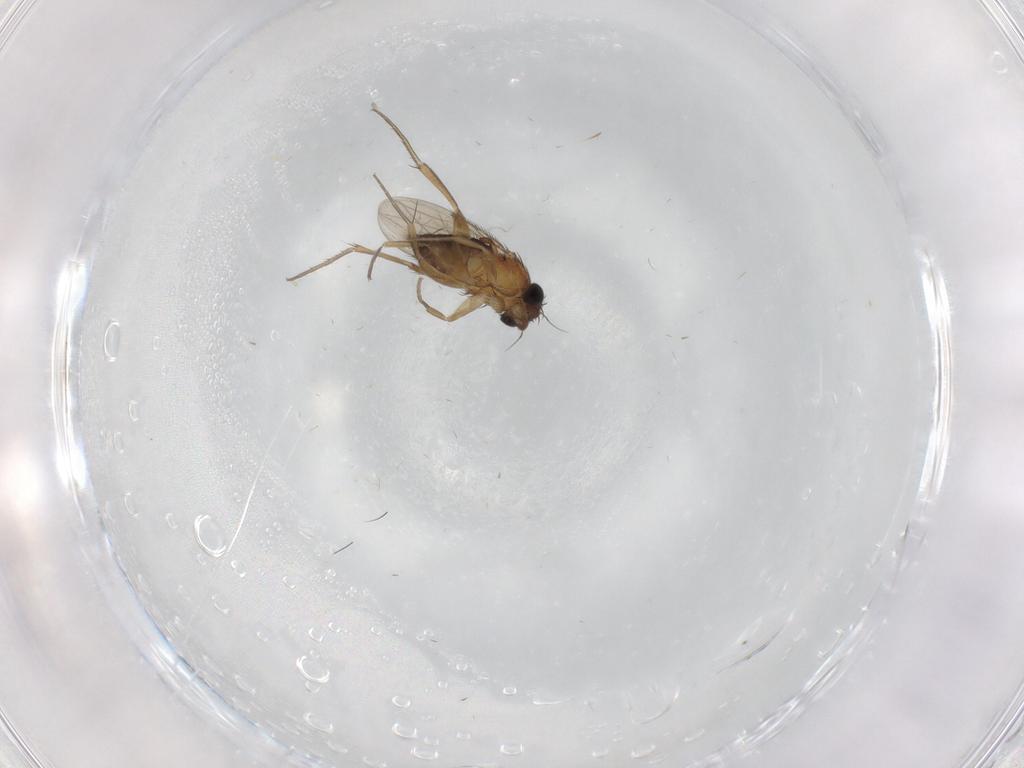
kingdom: Animalia
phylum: Arthropoda
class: Insecta
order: Diptera
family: Phoridae
